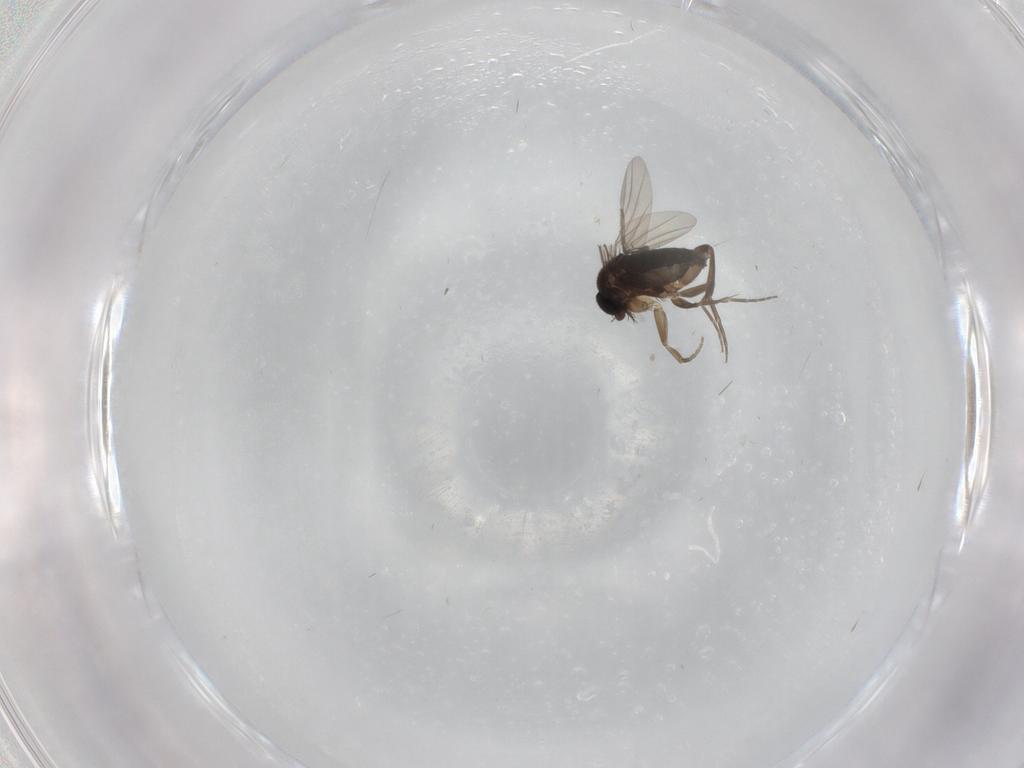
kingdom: Animalia
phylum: Arthropoda
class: Insecta
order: Diptera
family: Phoridae
